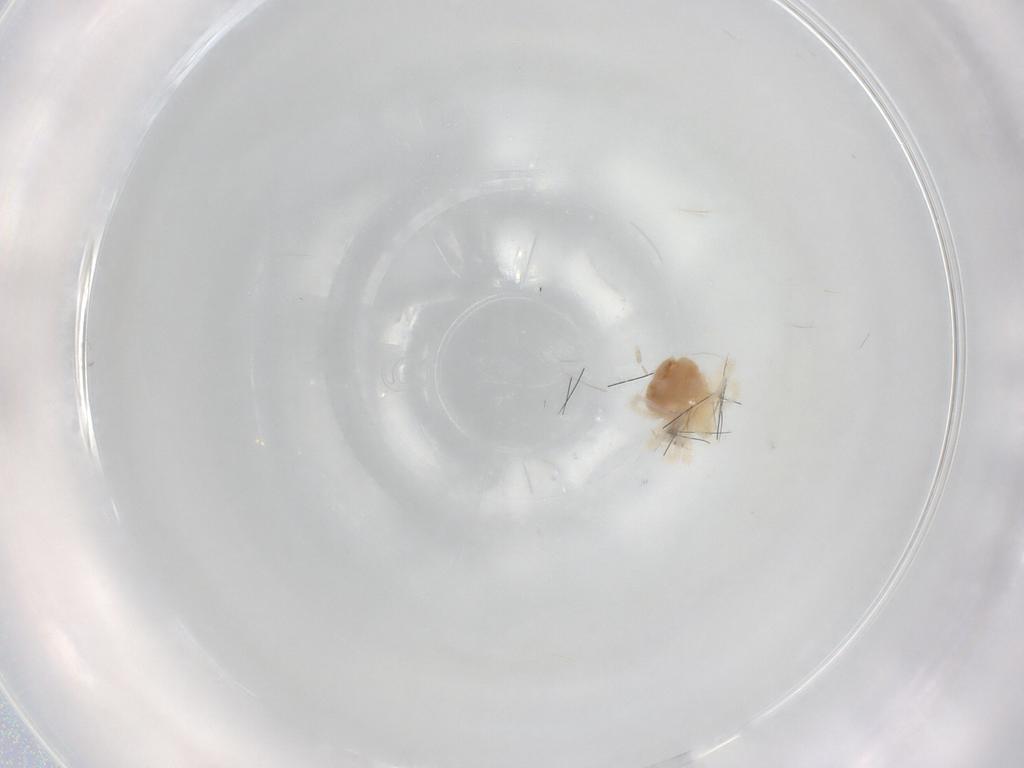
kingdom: Animalia
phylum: Arthropoda
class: Arachnida
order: Trombidiformes
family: Eriophyidae
